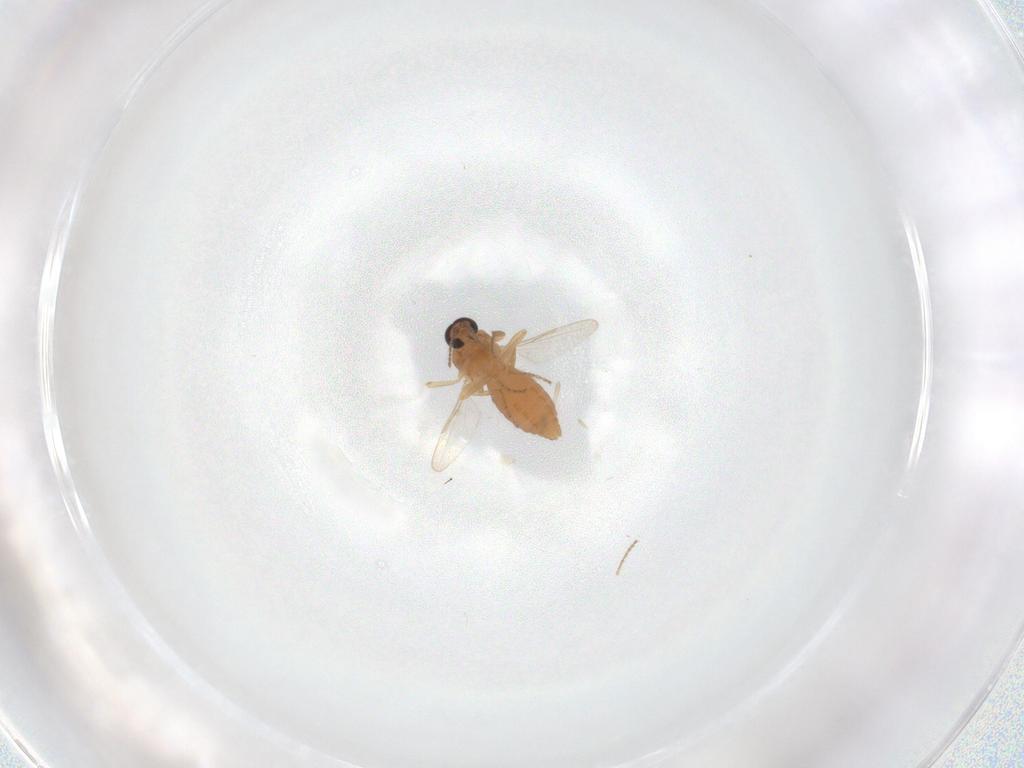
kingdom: Animalia
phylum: Arthropoda
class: Insecta
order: Diptera
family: Ceratopogonidae
